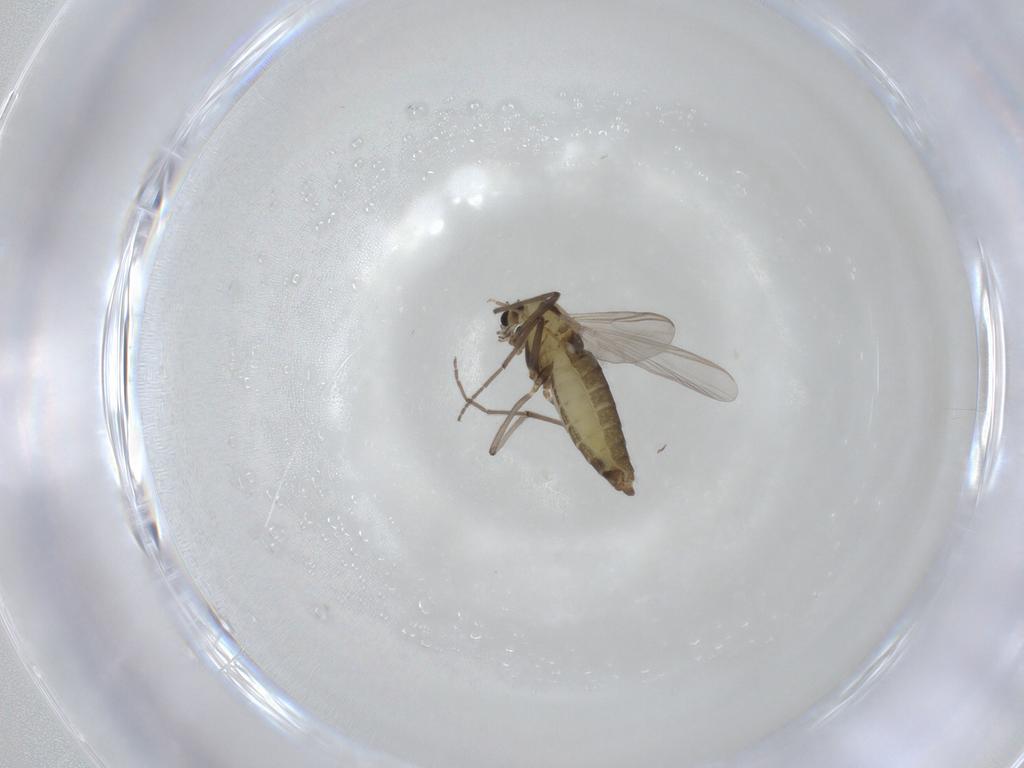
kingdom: Animalia
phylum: Arthropoda
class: Insecta
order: Diptera
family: Chironomidae
